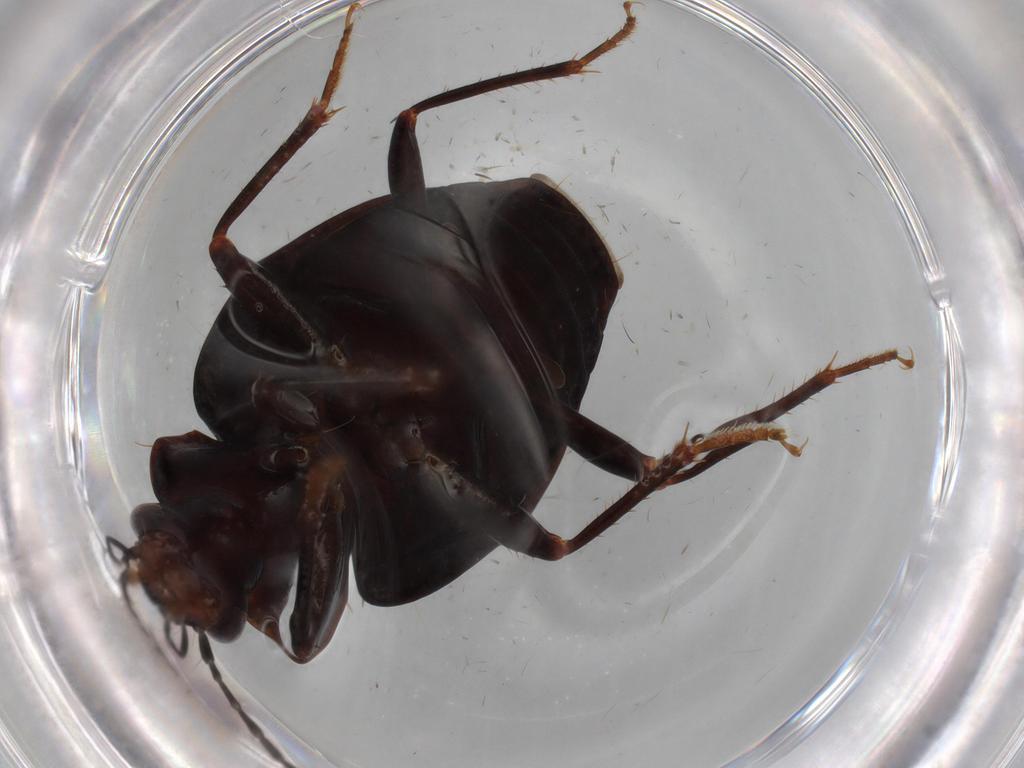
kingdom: Animalia
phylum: Arthropoda
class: Insecta
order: Coleoptera
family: Carabidae
